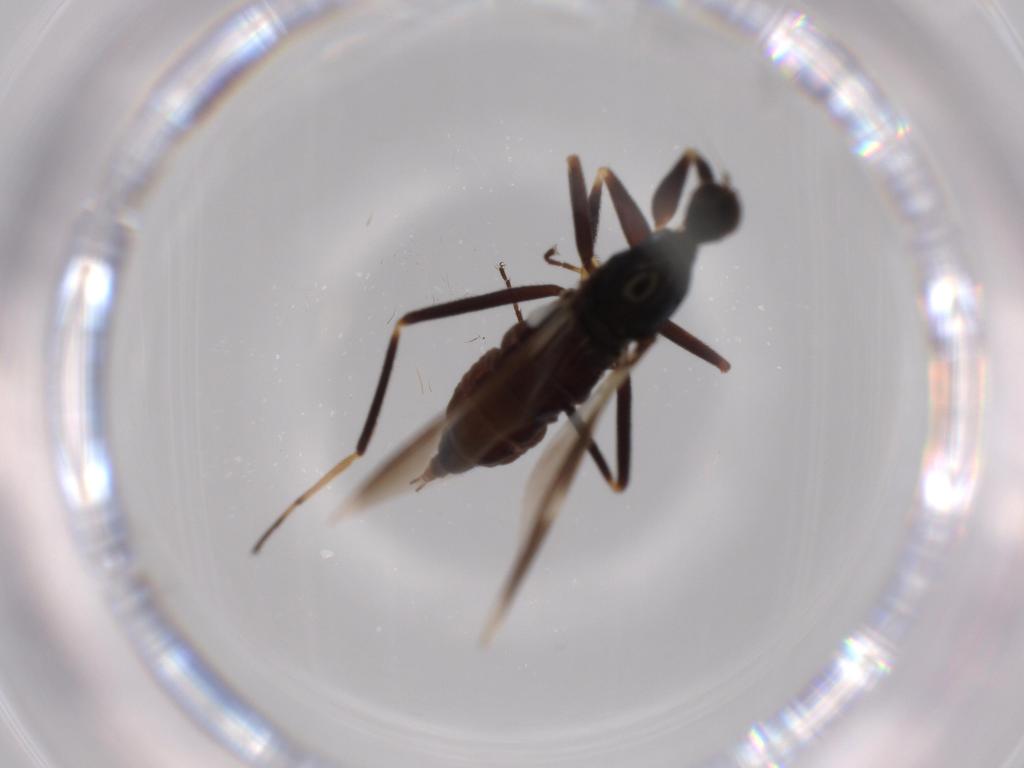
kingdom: Animalia
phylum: Arthropoda
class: Insecta
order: Diptera
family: Hybotidae
